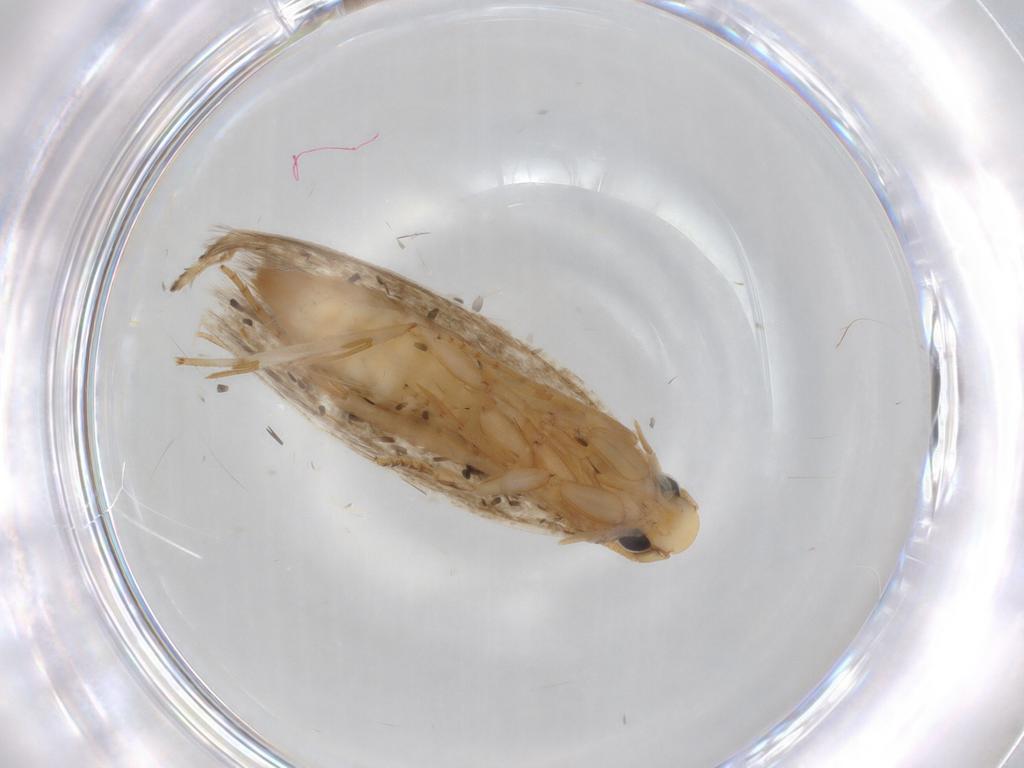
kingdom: Animalia
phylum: Arthropoda
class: Insecta
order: Lepidoptera
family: Tineidae
